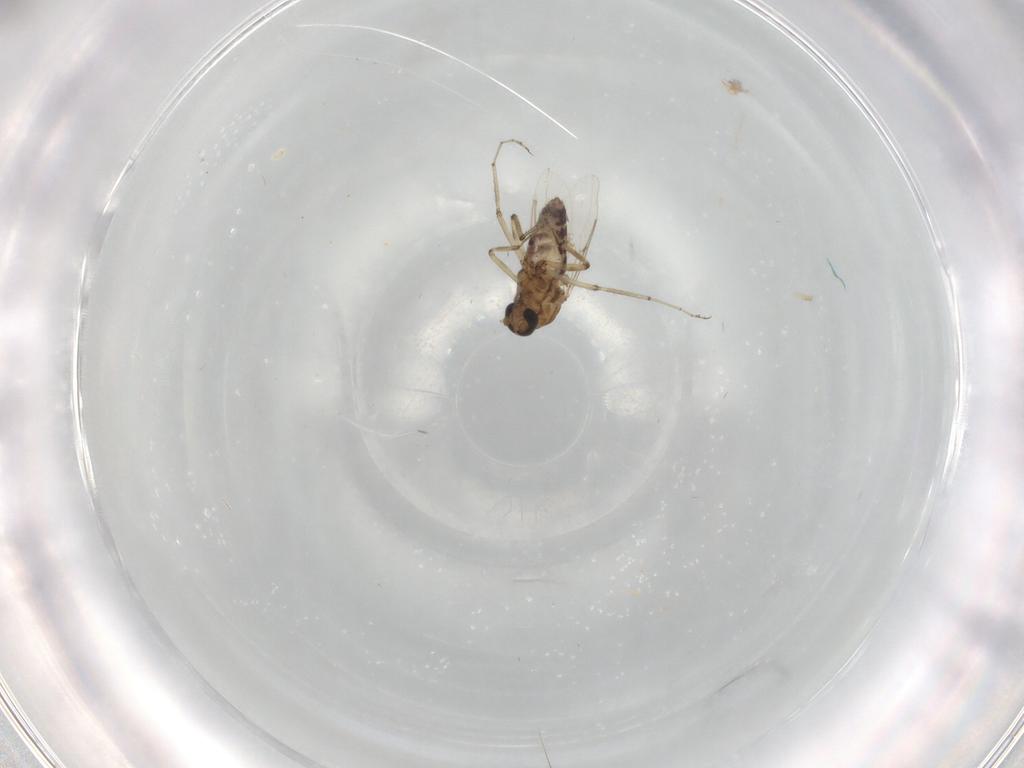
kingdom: Animalia
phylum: Arthropoda
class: Insecta
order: Diptera
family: Ceratopogonidae
